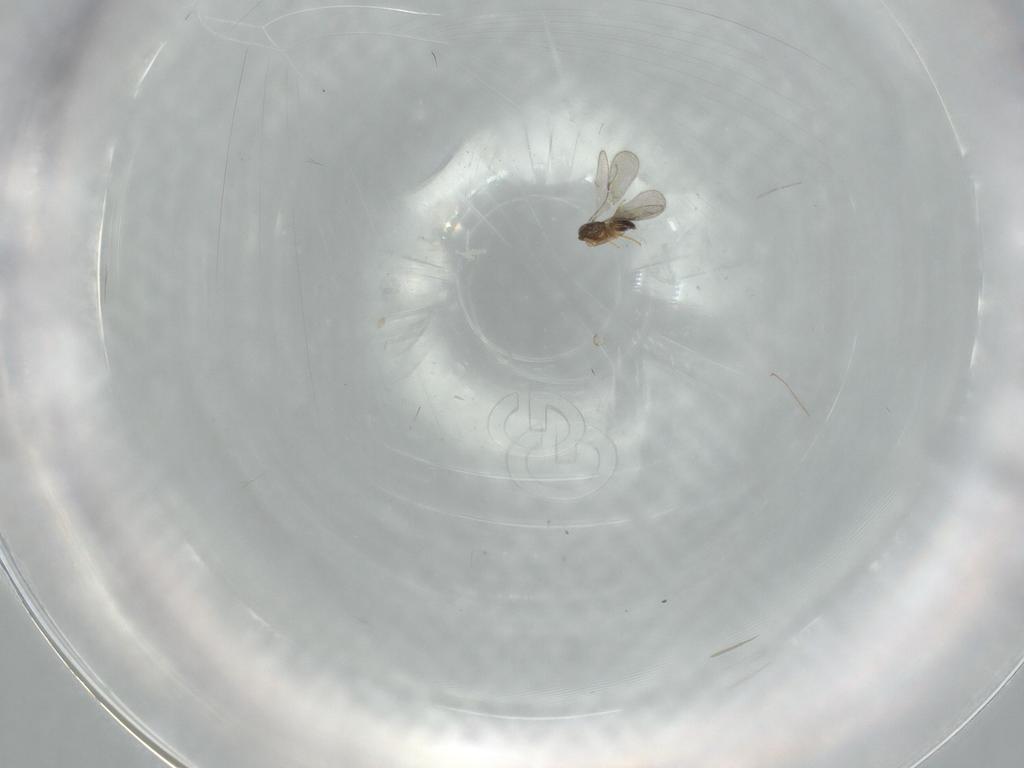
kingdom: Animalia
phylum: Arthropoda
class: Insecta
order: Hymenoptera
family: Ceraphronidae
